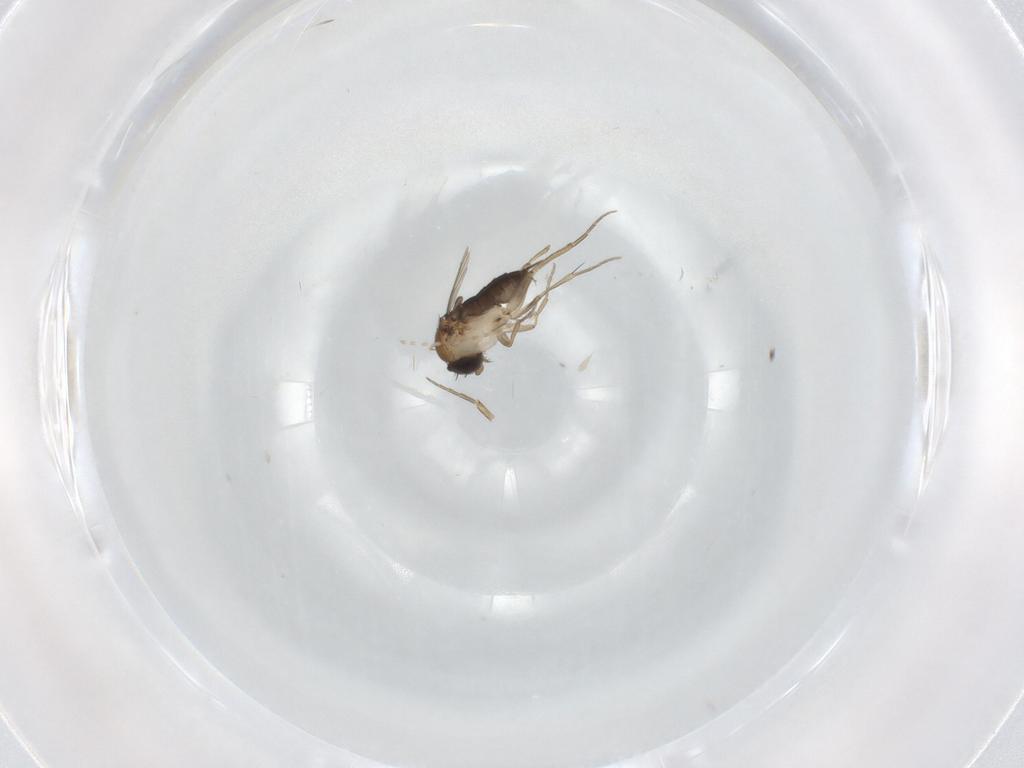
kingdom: Animalia
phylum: Arthropoda
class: Insecta
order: Diptera
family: Phoridae
